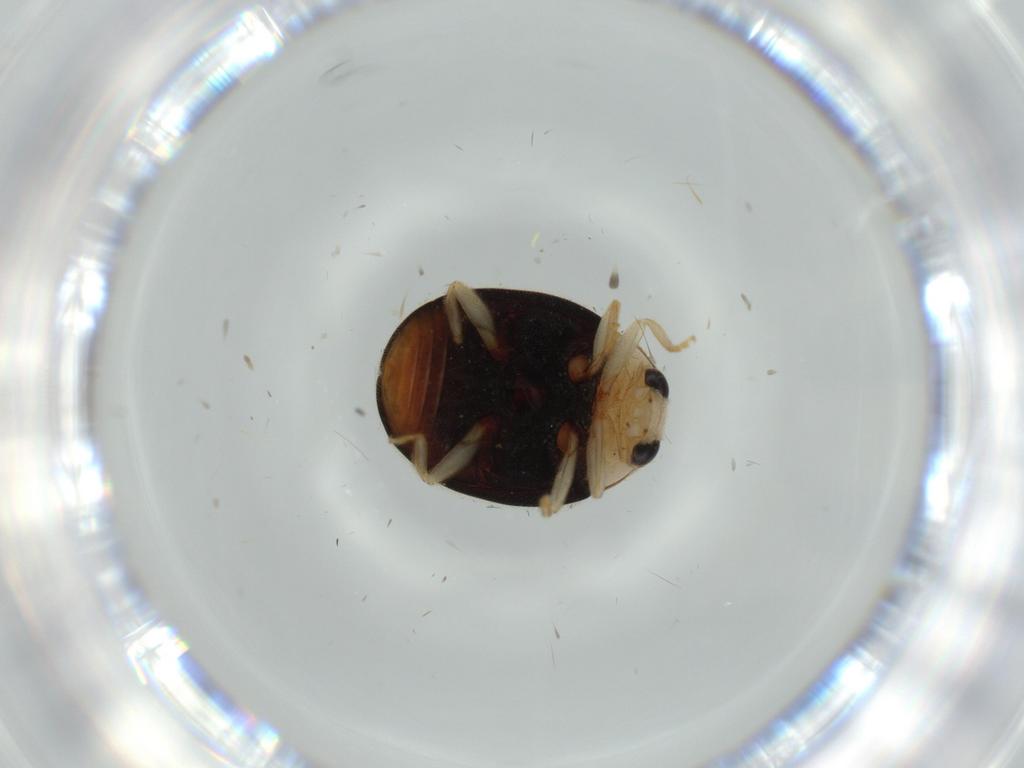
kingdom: Animalia
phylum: Arthropoda
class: Insecta
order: Coleoptera
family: Coccinellidae
